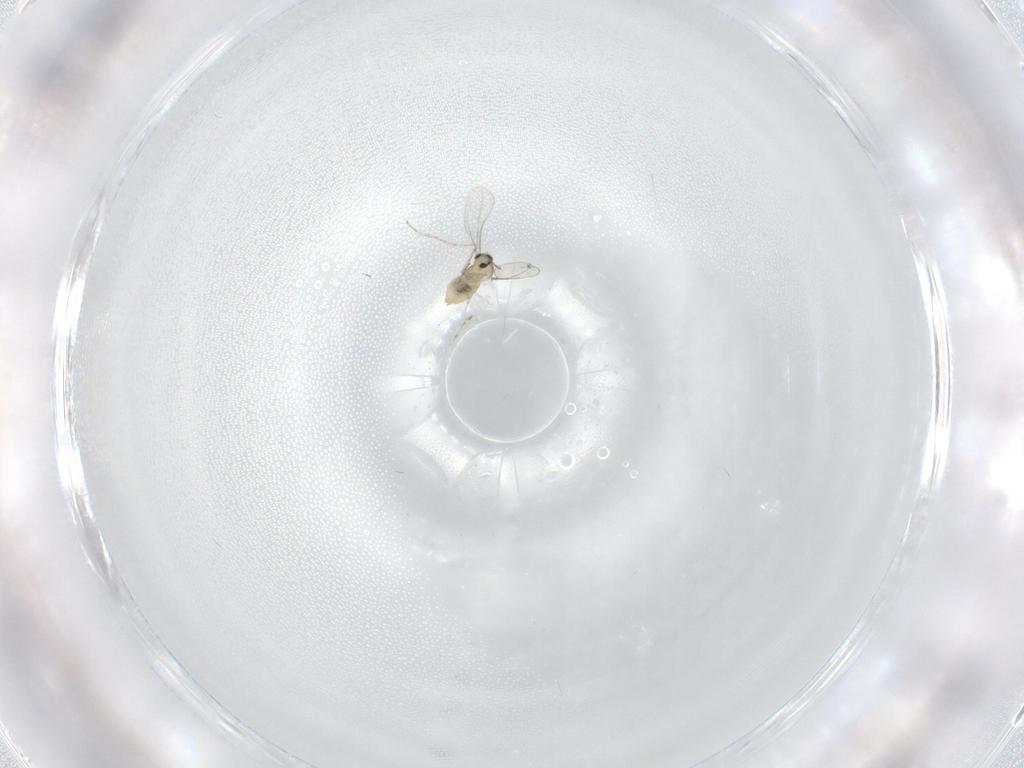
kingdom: Animalia
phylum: Arthropoda
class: Insecta
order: Diptera
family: Cecidomyiidae
